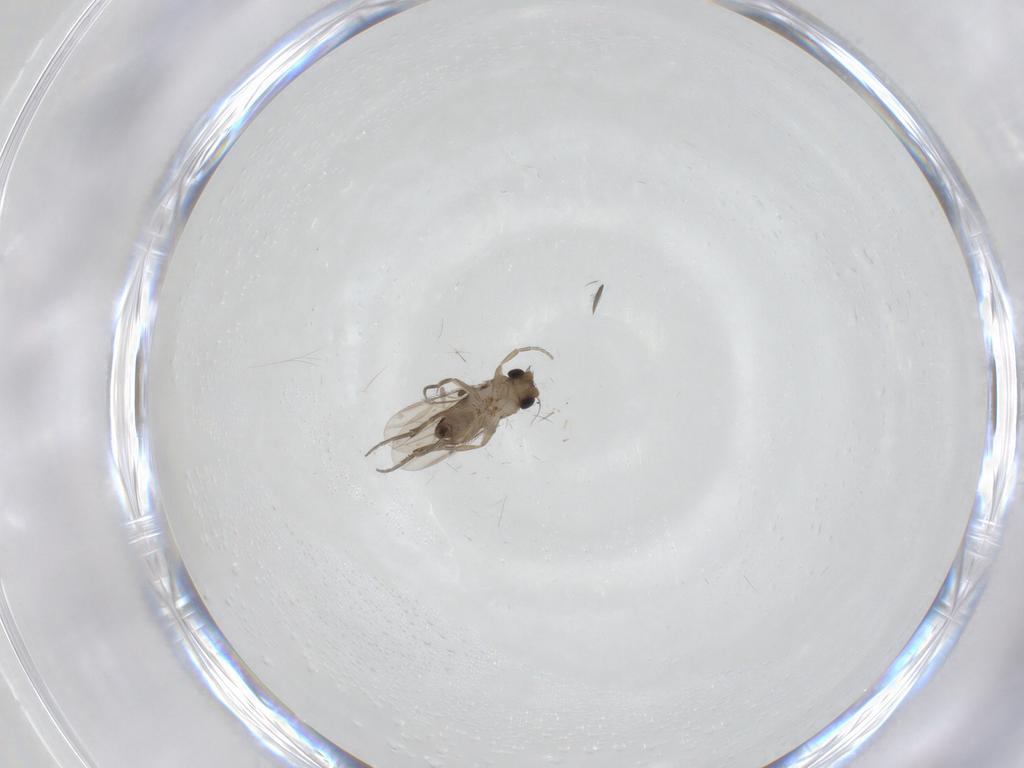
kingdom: Animalia
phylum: Arthropoda
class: Insecta
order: Diptera
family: Phoridae
